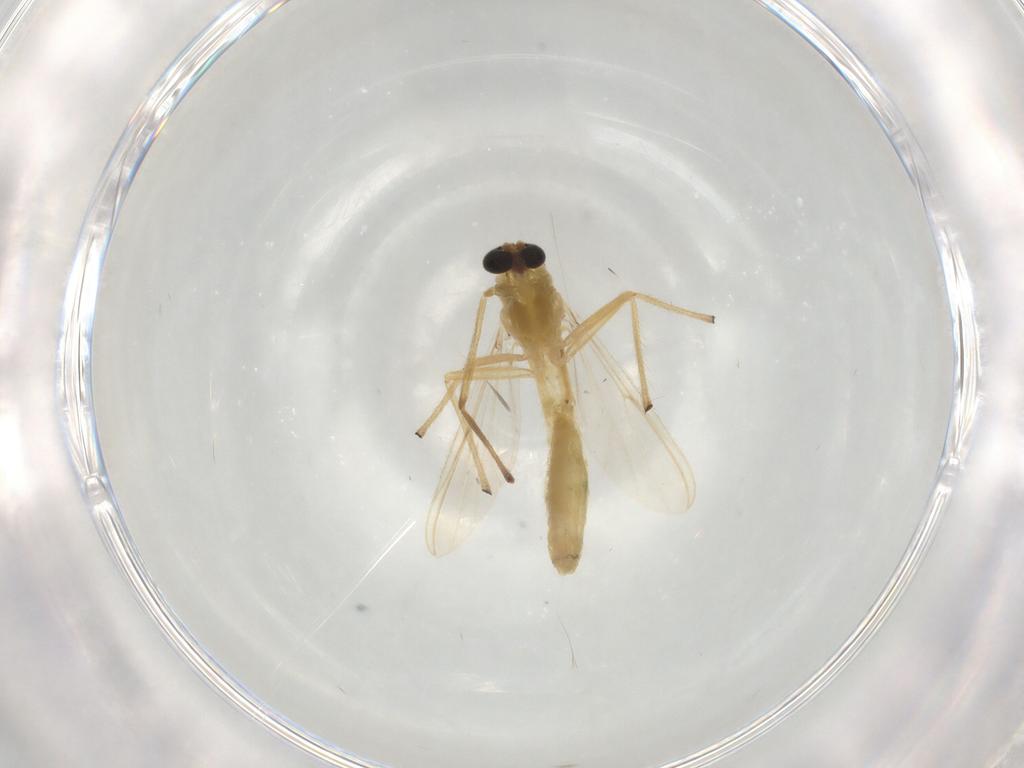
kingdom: Animalia
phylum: Arthropoda
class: Insecta
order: Diptera
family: Chironomidae
